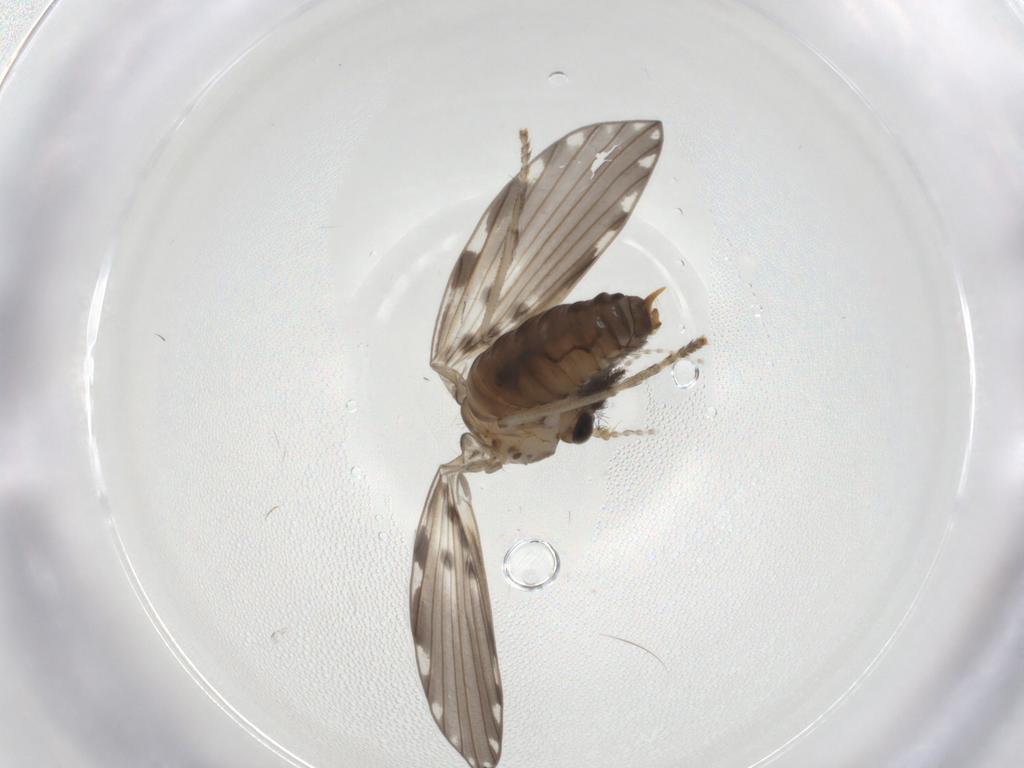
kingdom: Animalia
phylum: Arthropoda
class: Insecta
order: Diptera
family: Psychodidae
